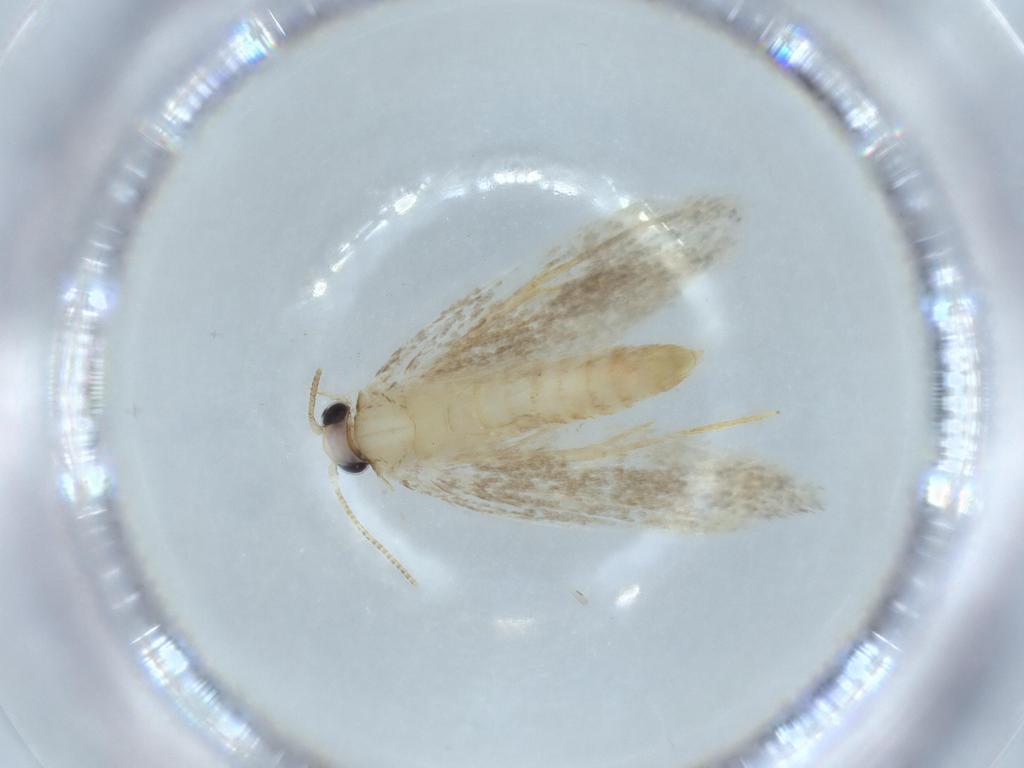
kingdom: Animalia
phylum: Arthropoda
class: Insecta
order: Lepidoptera
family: Tineidae
